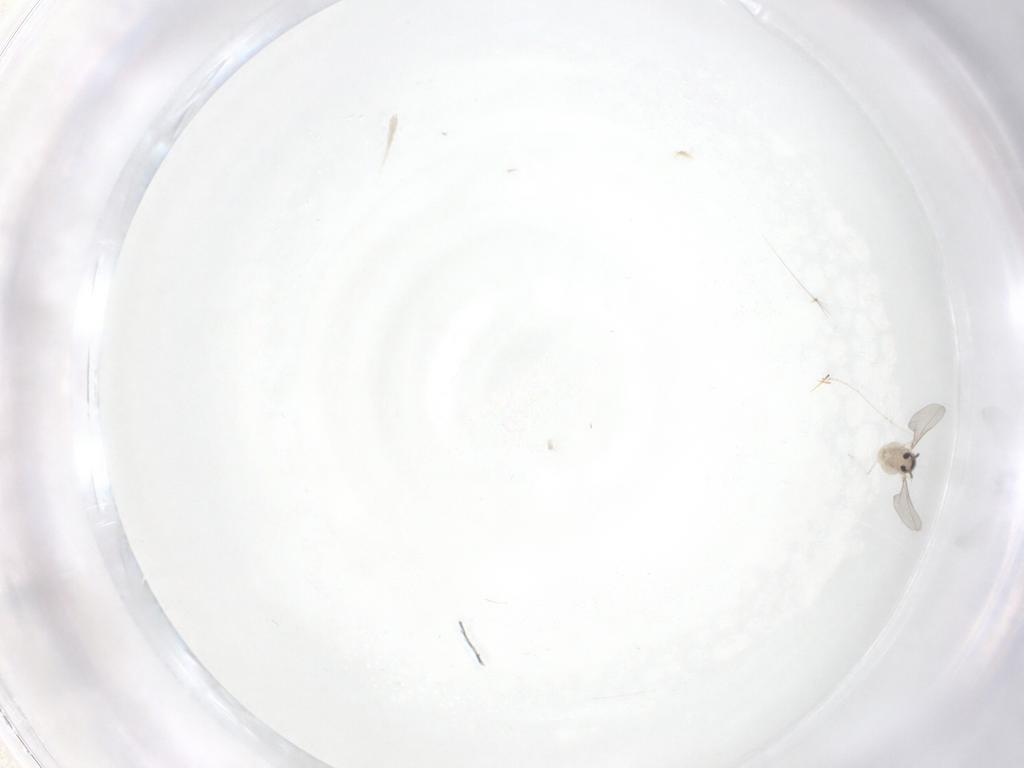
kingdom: Animalia
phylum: Arthropoda
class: Insecta
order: Diptera
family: Cecidomyiidae
